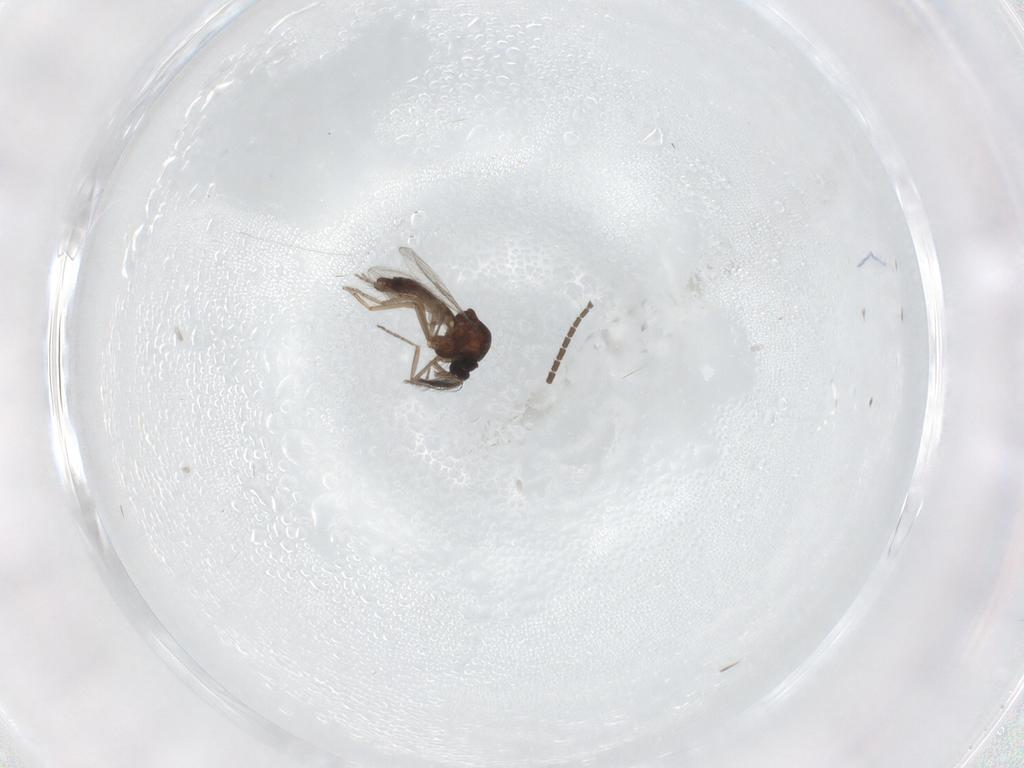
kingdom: Animalia
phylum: Arthropoda
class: Insecta
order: Diptera
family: Ceratopogonidae
